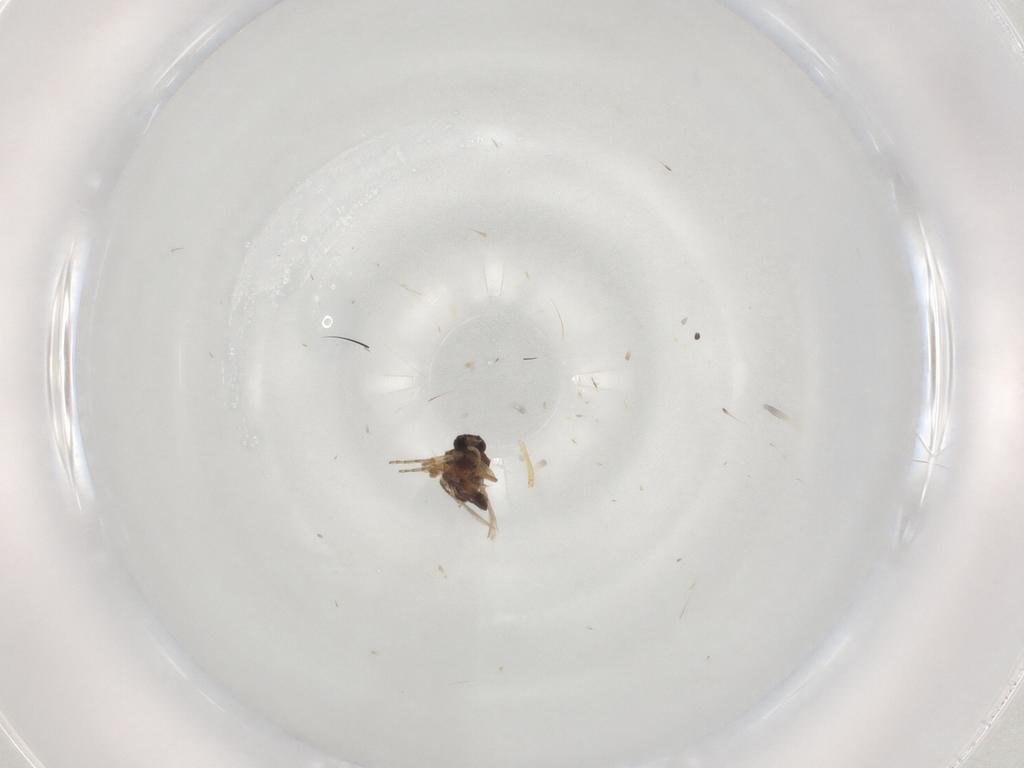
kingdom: Animalia
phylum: Arthropoda
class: Insecta
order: Diptera
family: Ceratopogonidae
